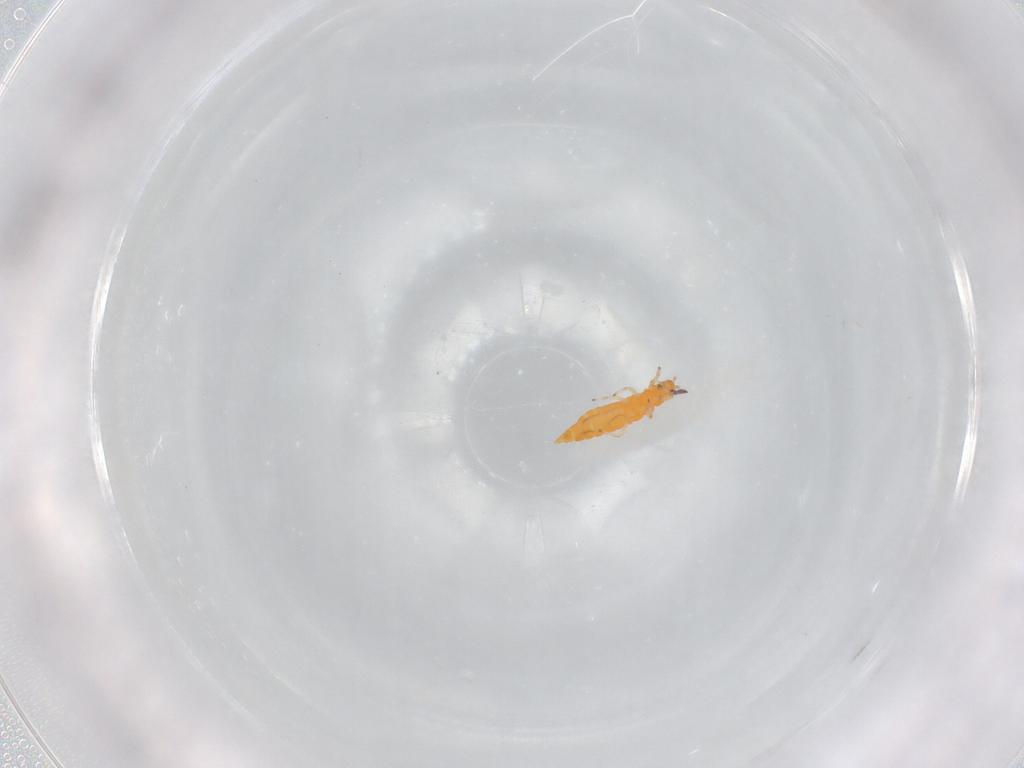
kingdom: Animalia
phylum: Arthropoda
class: Insecta
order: Thysanoptera
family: Aeolothripidae
